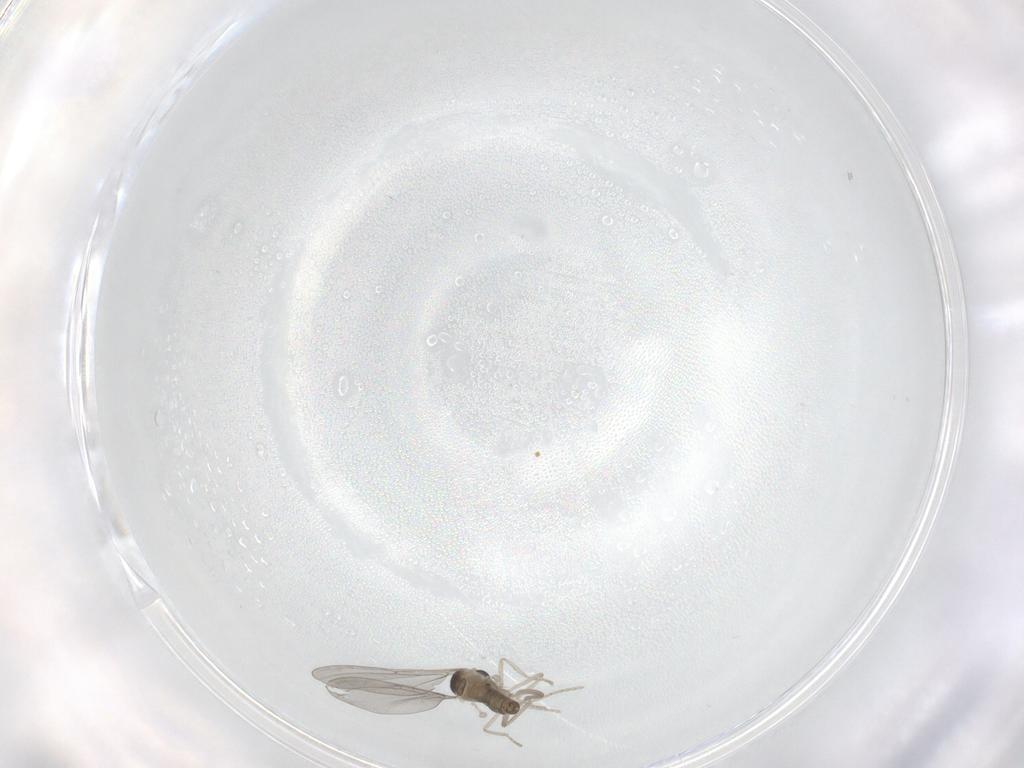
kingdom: Animalia
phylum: Arthropoda
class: Insecta
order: Diptera
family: Cecidomyiidae
